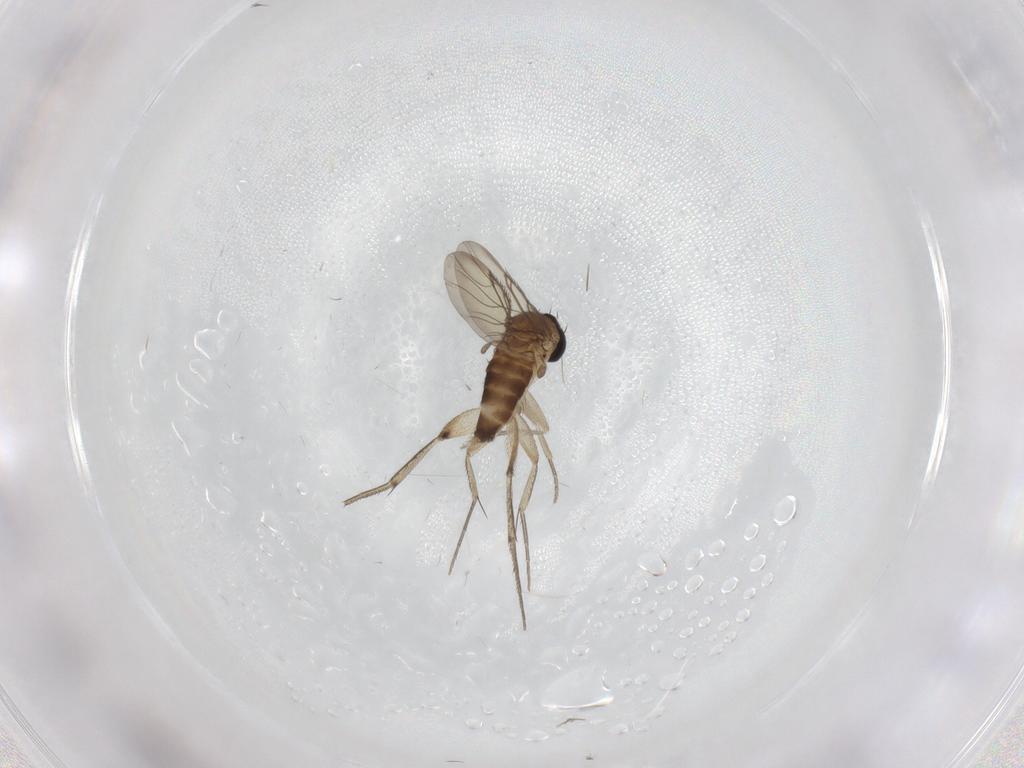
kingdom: Animalia
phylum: Arthropoda
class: Insecta
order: Diptera
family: Phoridae
